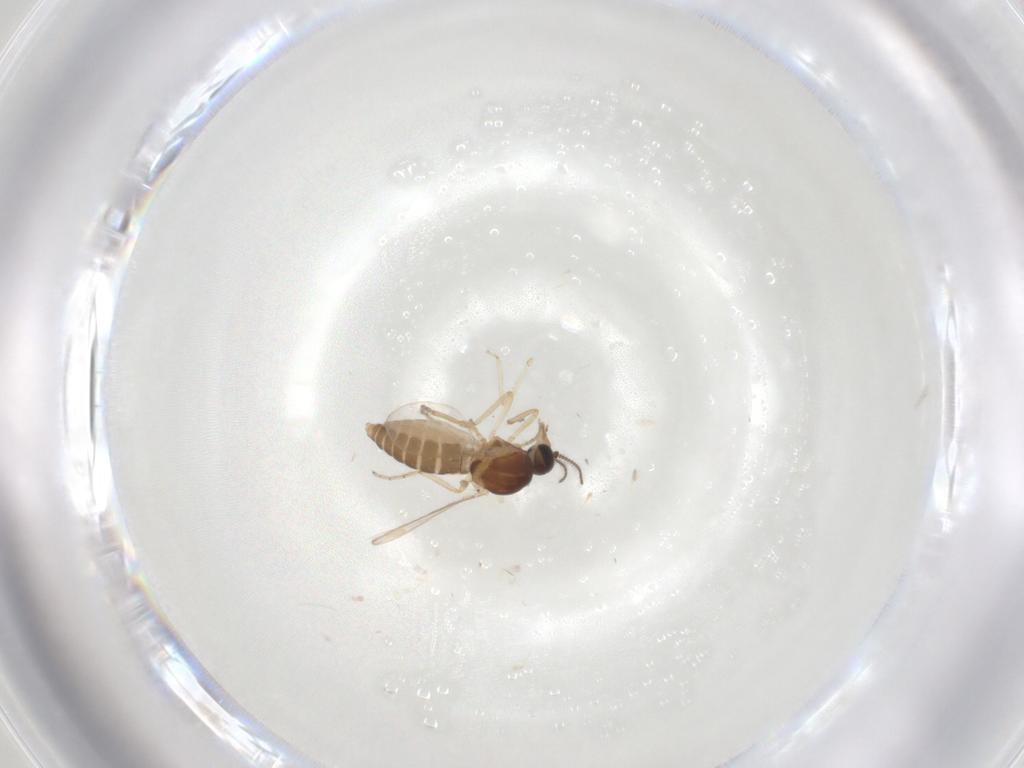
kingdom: Animalia
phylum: Arthropoda
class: Insecta
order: Diptera
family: Ceratopogonidae
